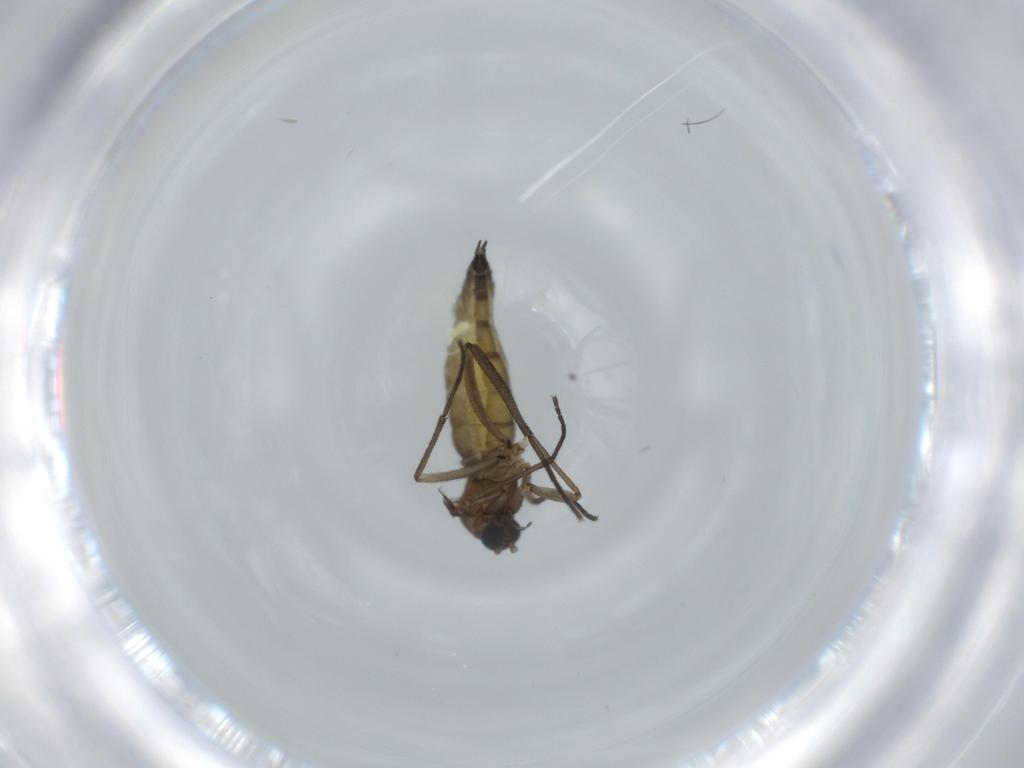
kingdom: Animalia
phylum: Arthropoda
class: Insecta
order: Diptera
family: Sciaridae
